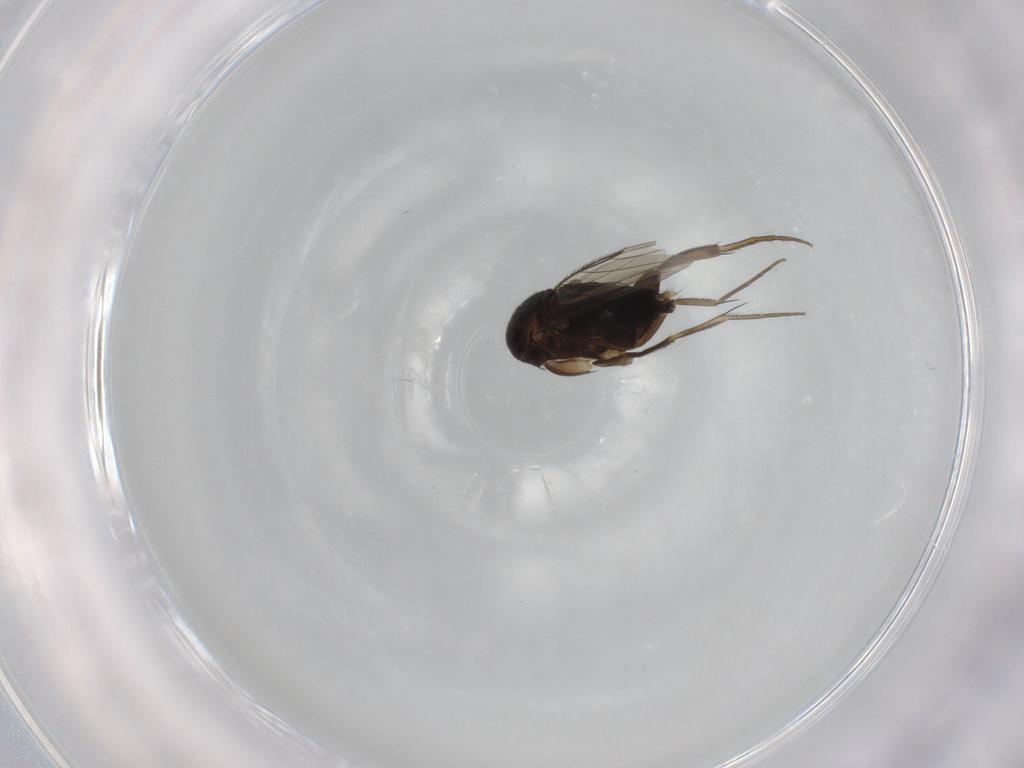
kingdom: Animalia
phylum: Arthropoda
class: Insecta
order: Diptera
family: Phoridae
